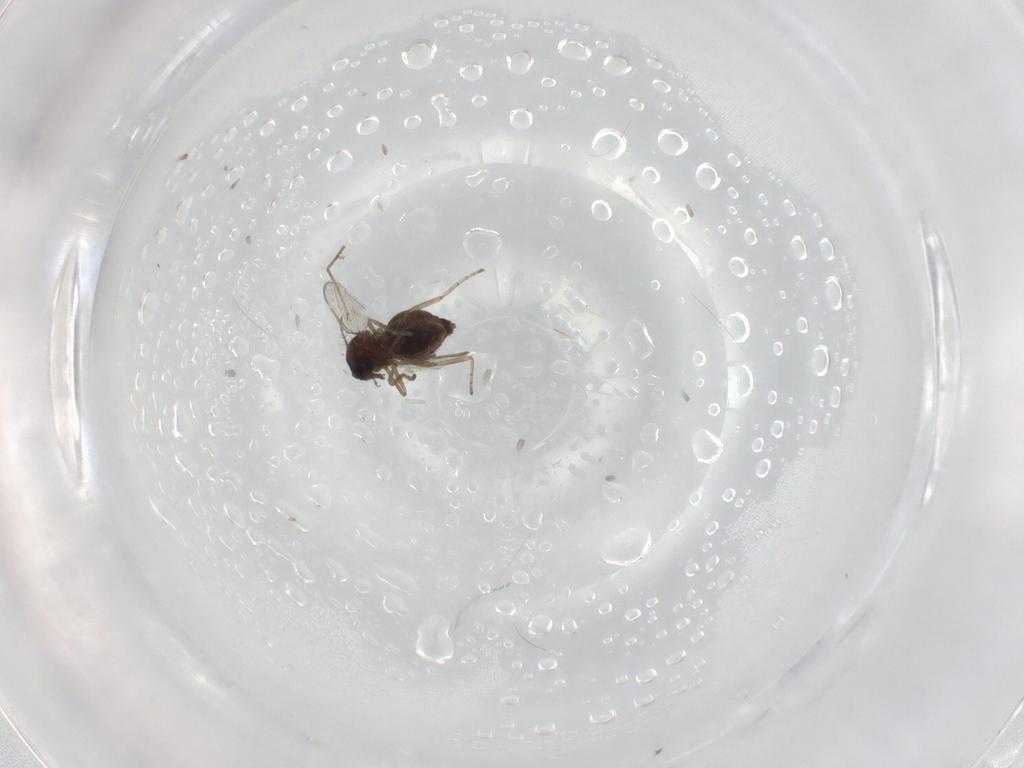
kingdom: Animalia
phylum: Arthropoda
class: Insecta
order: Diptera
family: Ceratopogonidae
